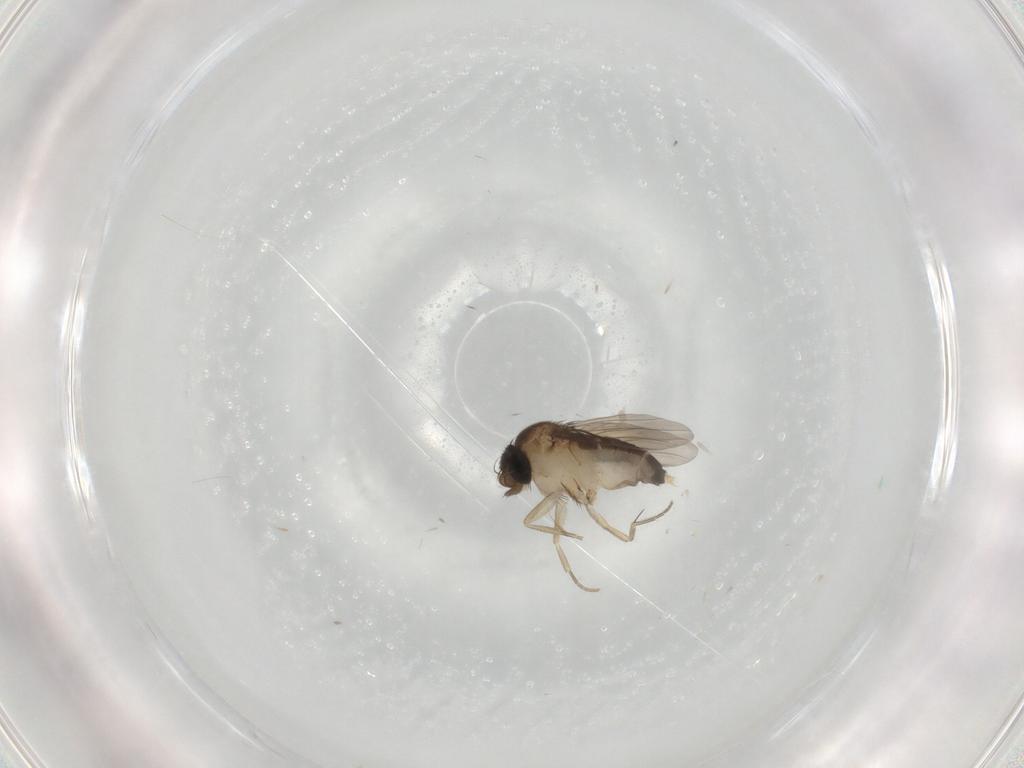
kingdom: Animalia
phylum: Arthropoda
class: Insecta
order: Diptera
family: Phoridae
